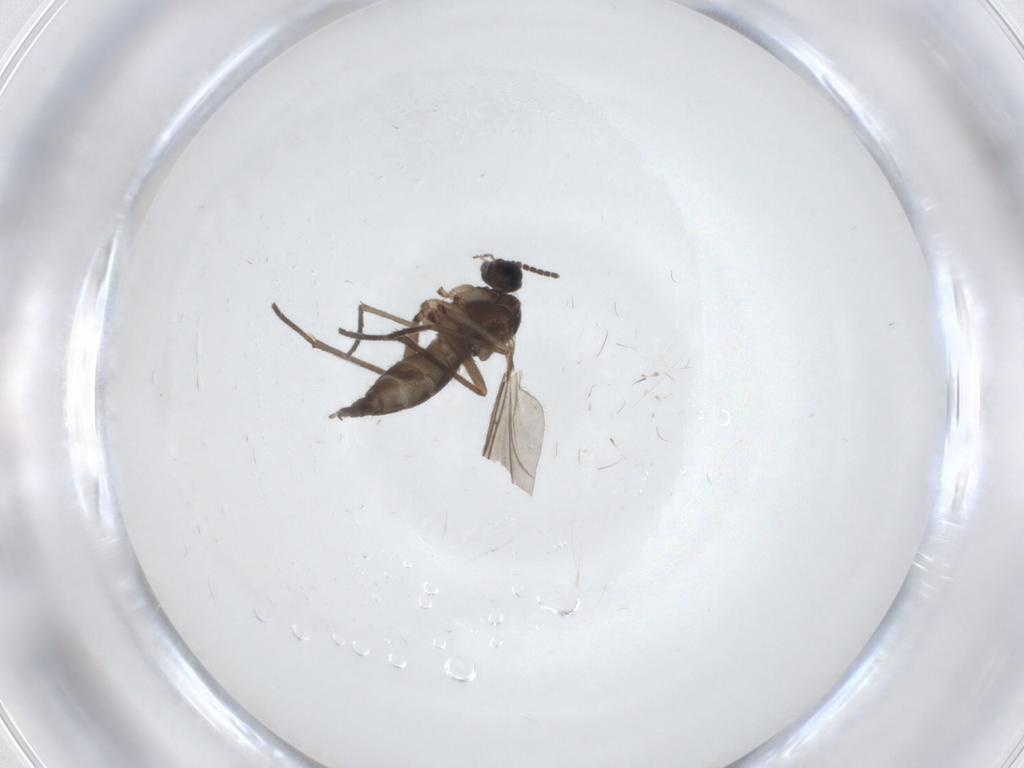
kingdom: Animalia
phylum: Arthropoda
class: Insecta
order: Diptera
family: Sciaridae
